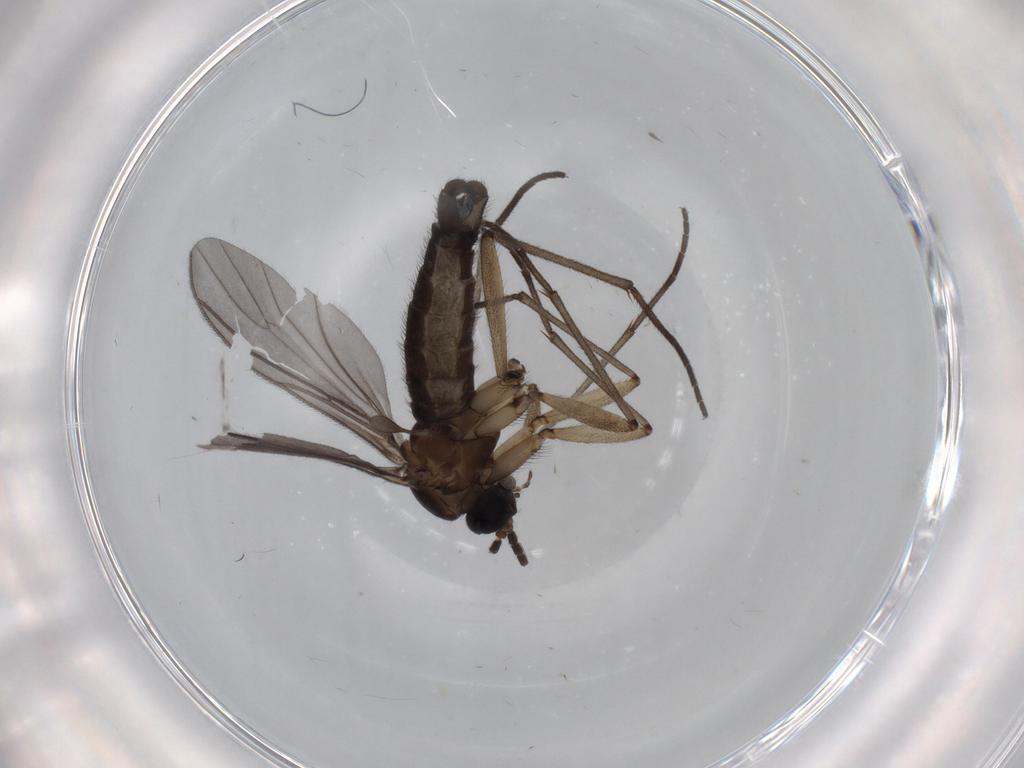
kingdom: Animalia
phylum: Arthropoda
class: Insecta
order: Diptera
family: Sciaridae
